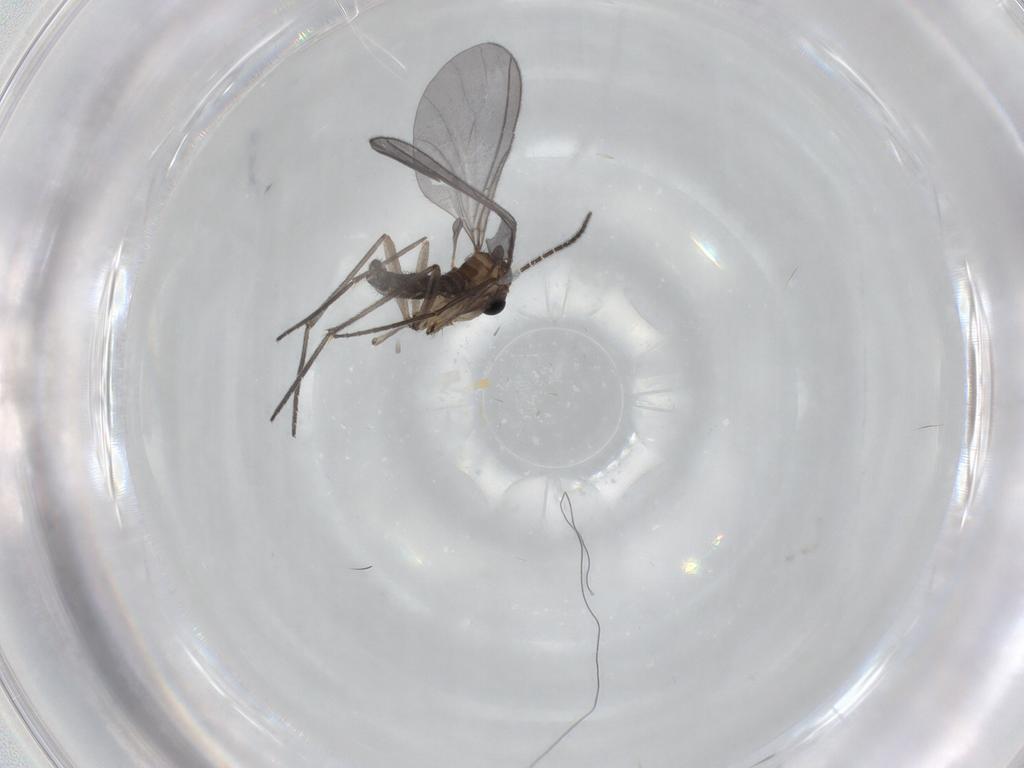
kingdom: Animalia
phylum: Arthropoda
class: Insecta
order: Diptera
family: Sciaridae
